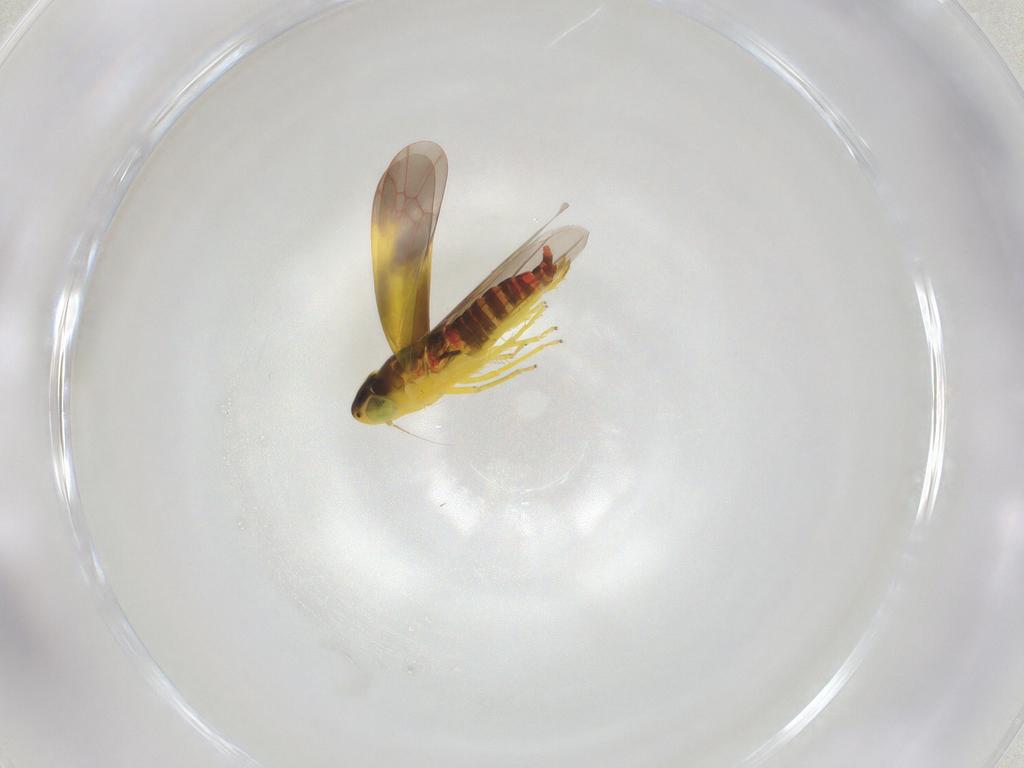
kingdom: Animalia
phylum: Arthropoda
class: Insecta
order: Hemiptera
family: Cicadellidae
